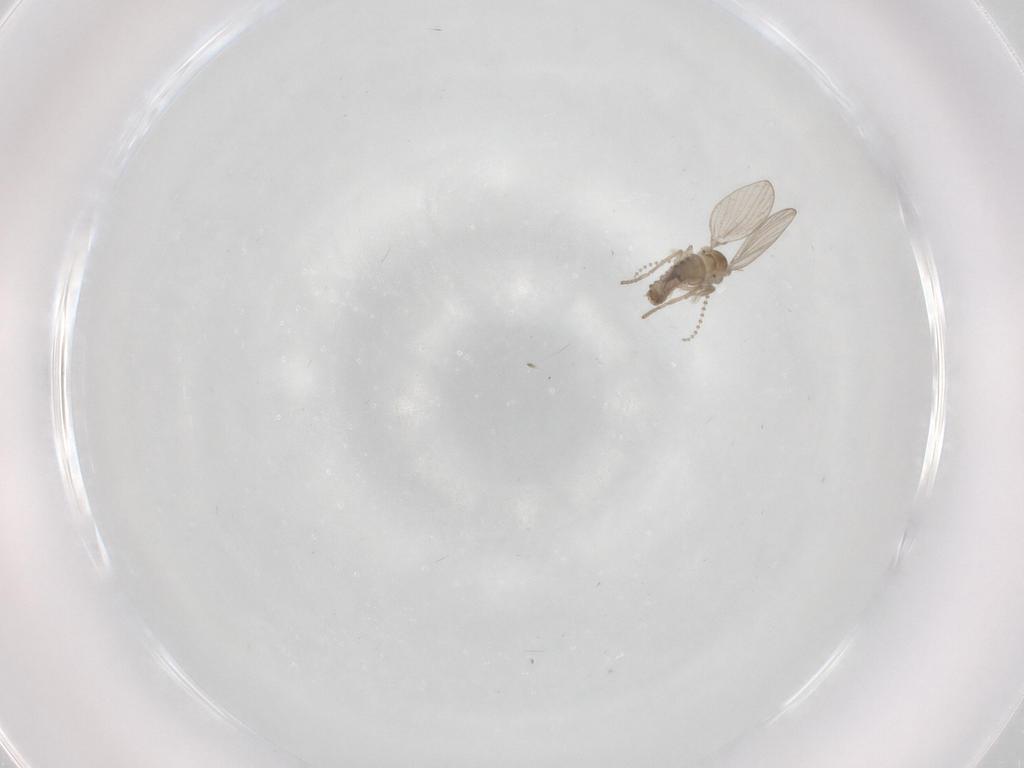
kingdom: Animalia
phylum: Arthropoda
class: Insecta
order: Diptera
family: Psychodidae
